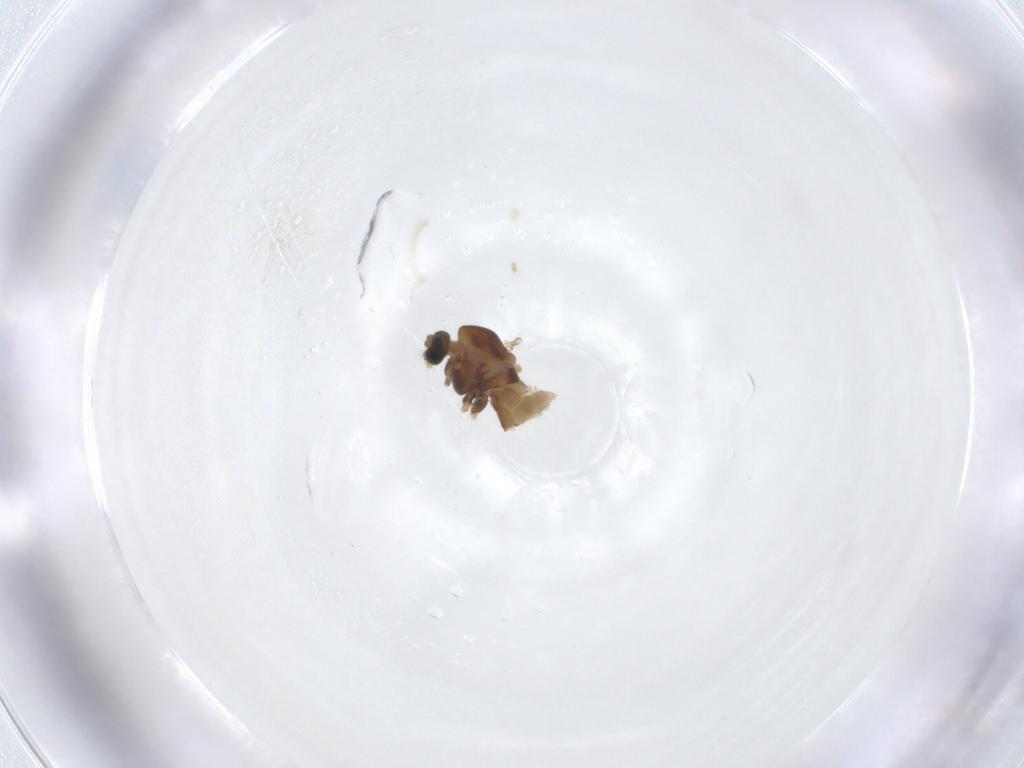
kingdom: Animalia
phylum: Arthropoda
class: Insecta
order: Diptera
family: Chironomidae
